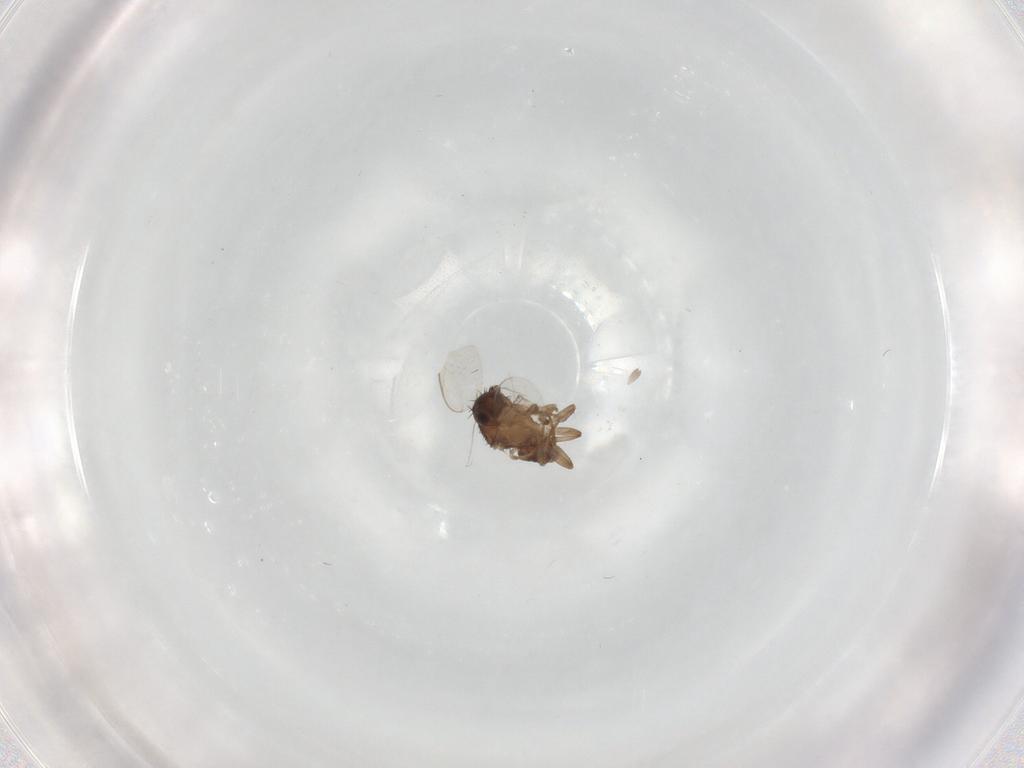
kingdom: Animalia
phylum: Arthropoda
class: Insecta
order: Diptera
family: Sphaeroceridae
